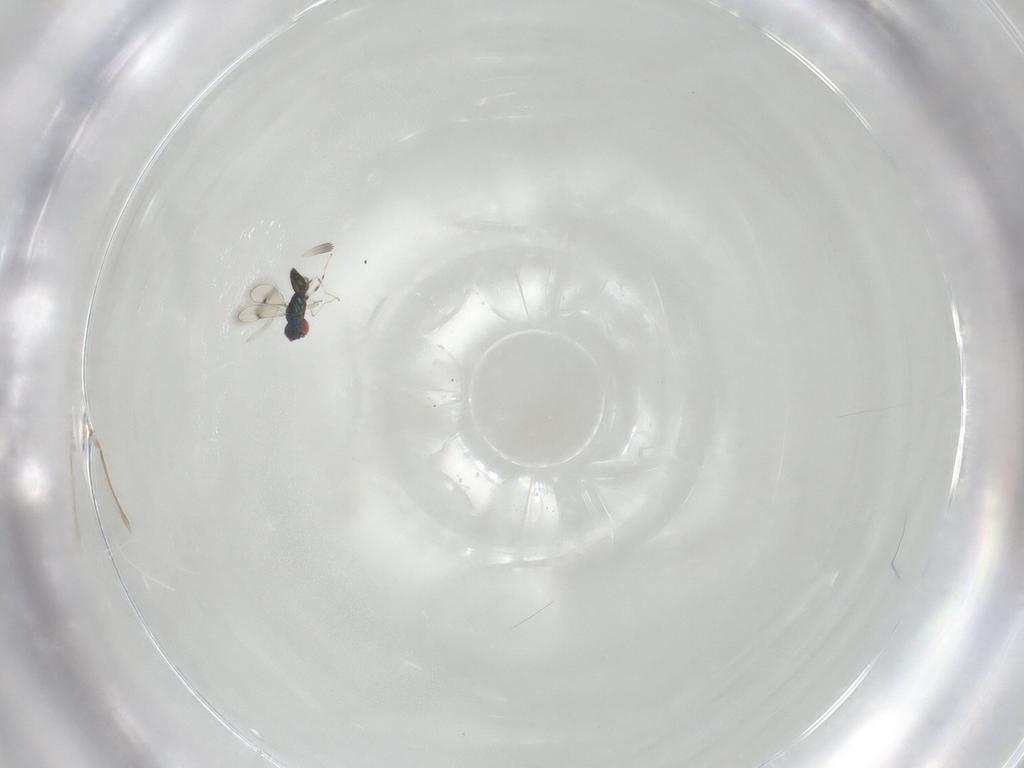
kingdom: Animalia
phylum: Arthropoda
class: Insecta
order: Hymenoptera
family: Eulophidae
